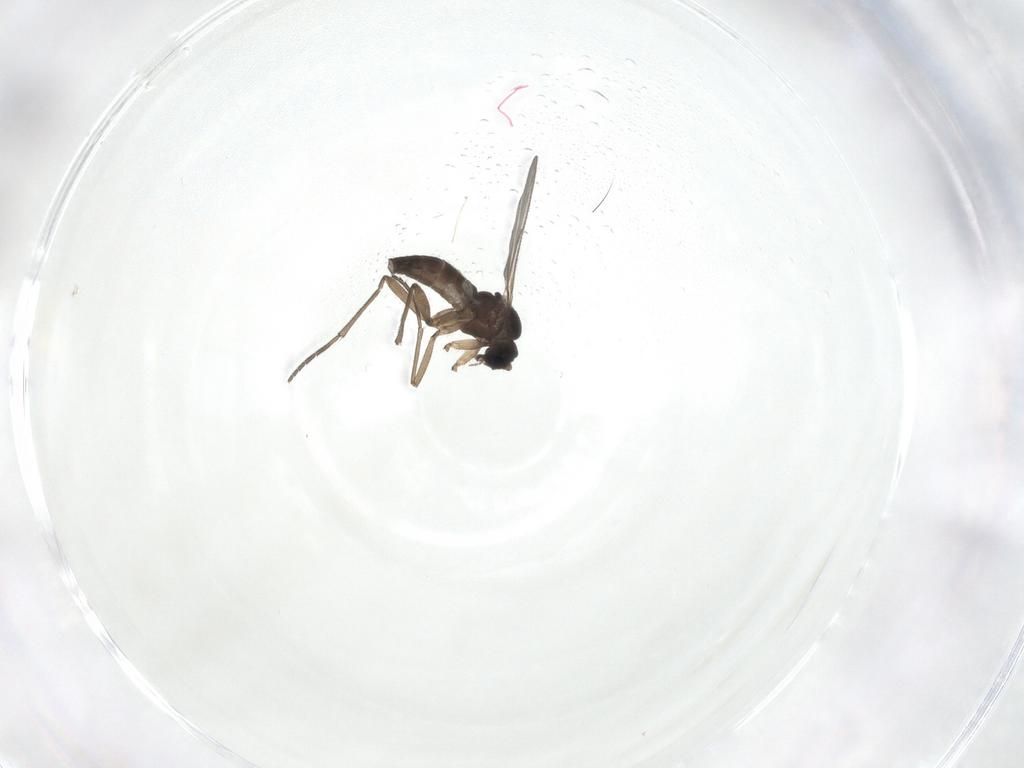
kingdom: Animalia
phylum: Arthropoda
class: Insecta
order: Diptera
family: Sciaridae
